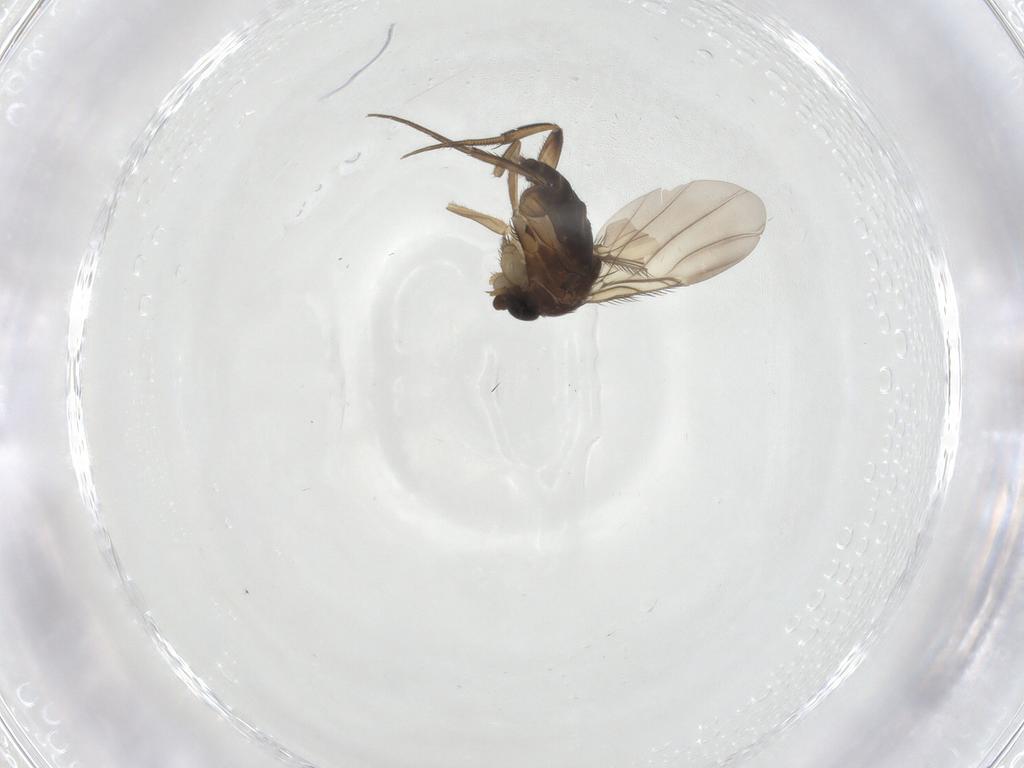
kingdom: Animalia
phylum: Arthropoda
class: Insecta
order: Diptera
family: Phoridae
